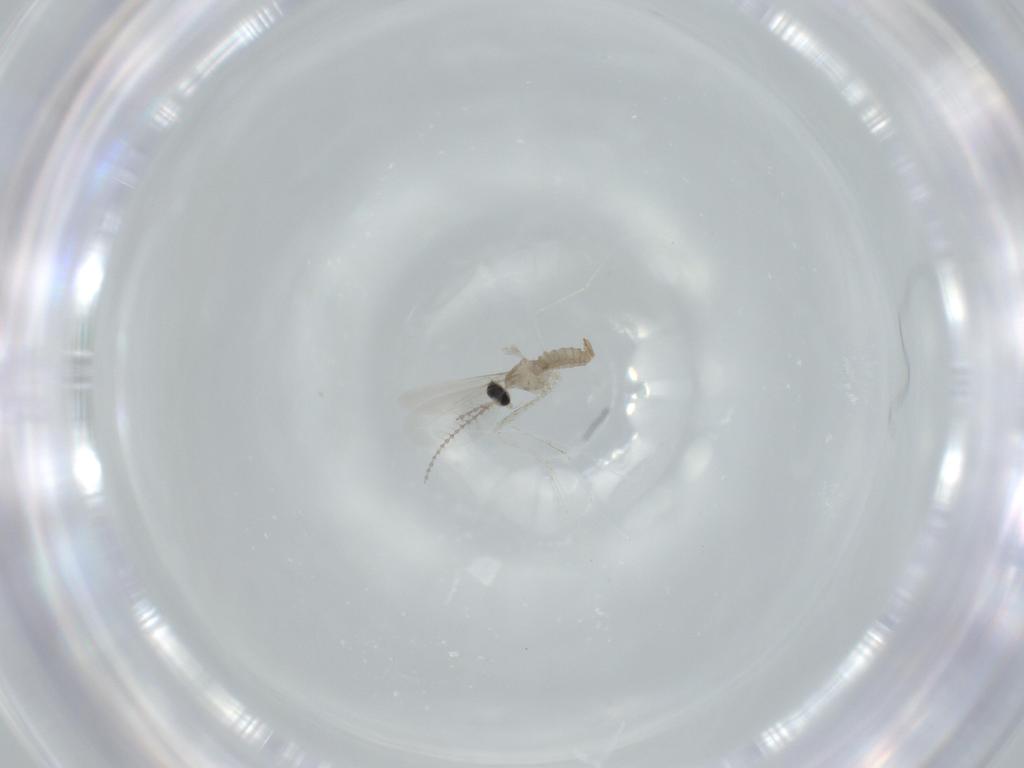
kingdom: Animalia
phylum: Arthropoda
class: Insecta
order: Diptera
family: Cecidomyiidae
